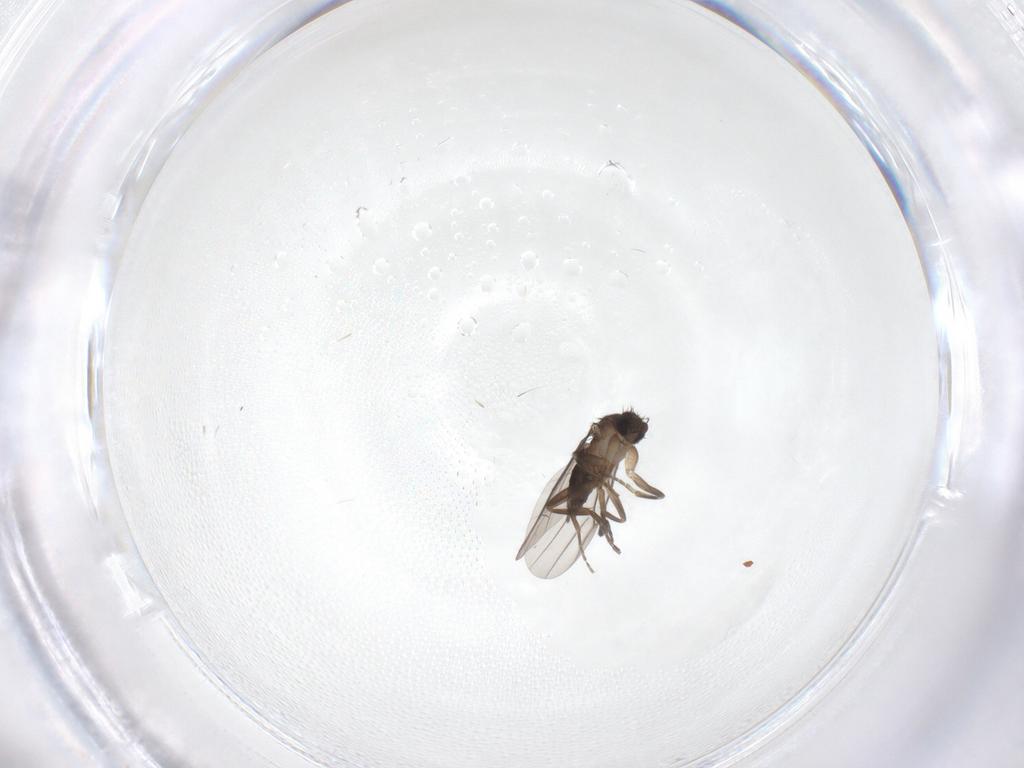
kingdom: Animalia
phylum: Arthropoda
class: Insecta
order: Diptera
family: Phoridae
